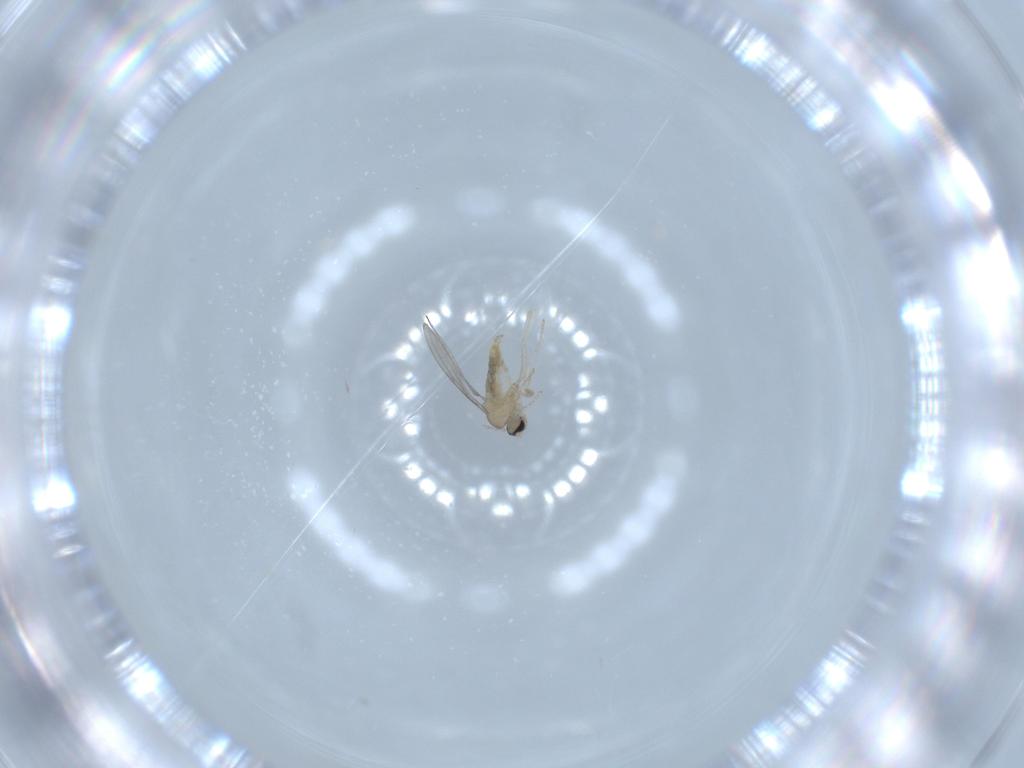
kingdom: Animalia
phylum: Arthropoda
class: Insecta
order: Diptera
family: Cecidomyiidae
